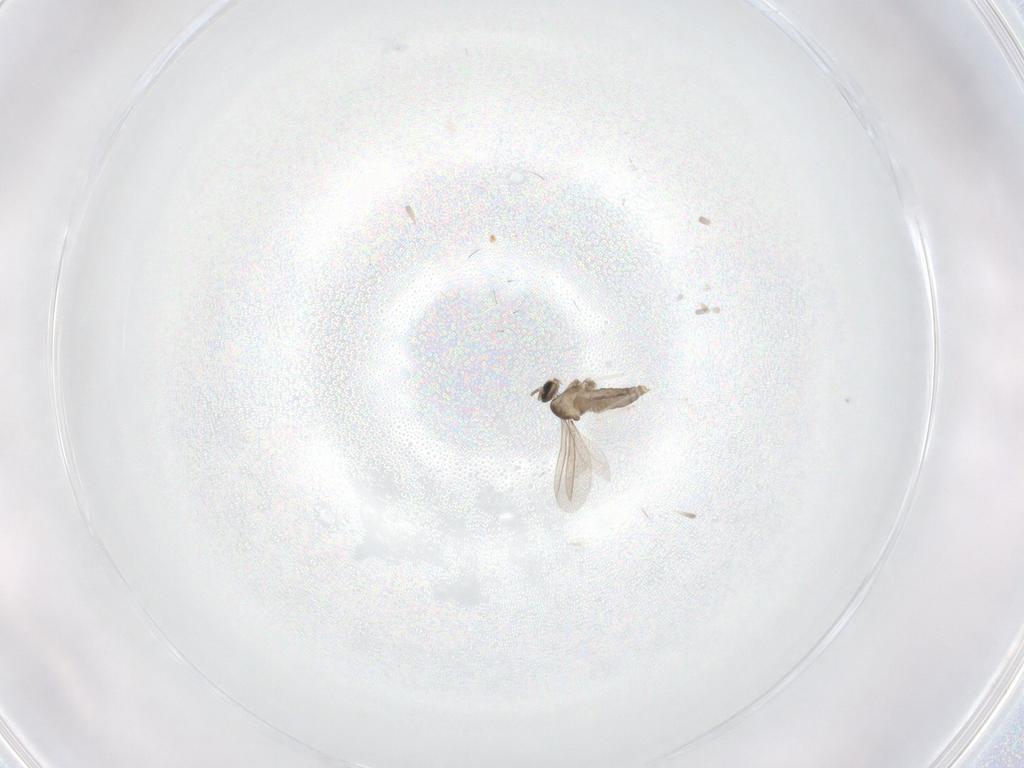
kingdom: Animalia
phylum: Arthropoda
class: Insecta
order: Diptera
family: Cecidomyiidae
